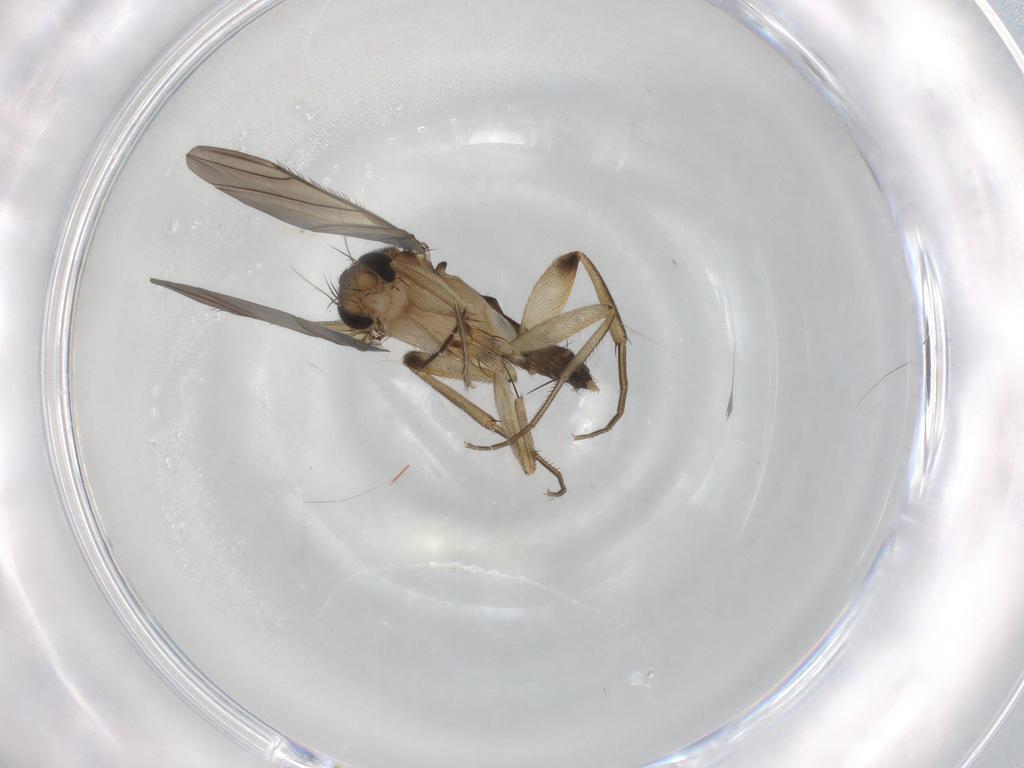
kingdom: Animalia
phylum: Arthropoda
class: Insecta
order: Diptera
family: Phoridae
